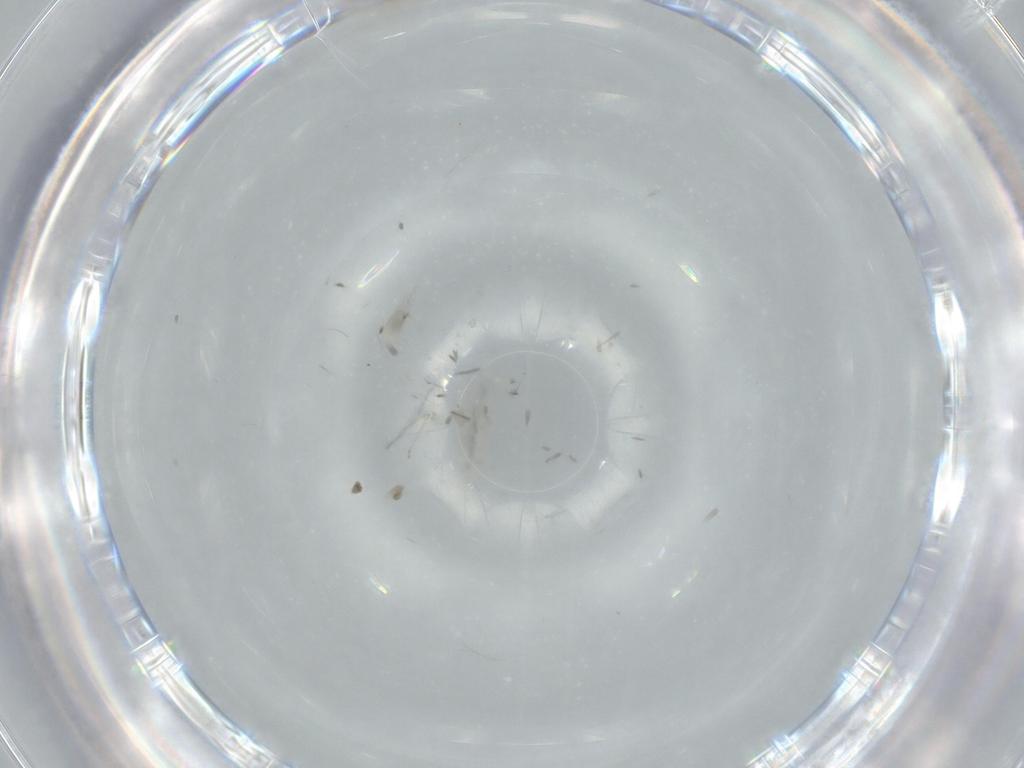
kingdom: Animalia
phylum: Arthropoda
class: Insecta
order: Diptera
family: Cecidomyiidae
